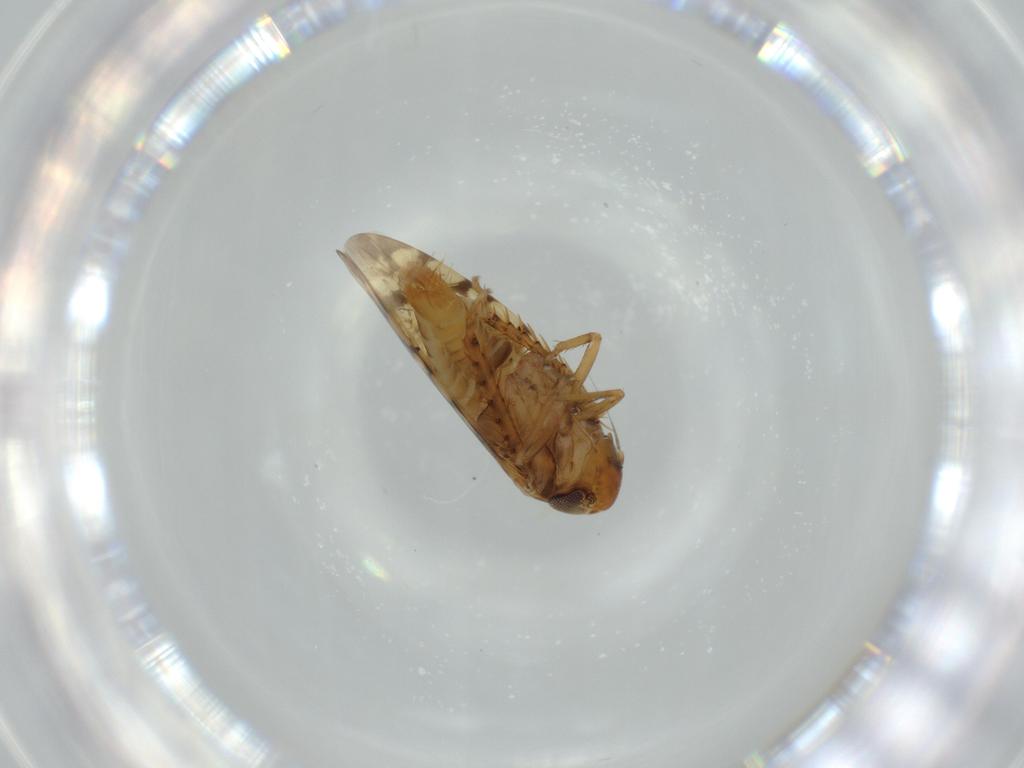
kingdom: Animalia
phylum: Arthropoda
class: Insecta
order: Hemiptera
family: Cicadellidae
